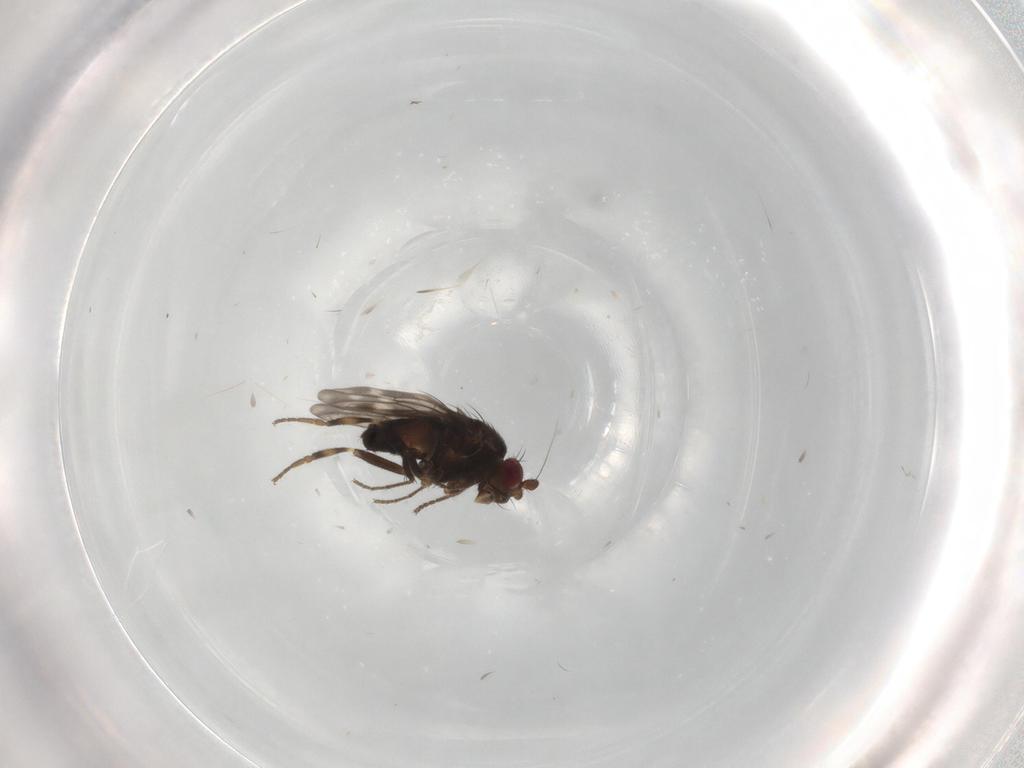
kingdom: Animalia
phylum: Arthropoda
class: Insecta
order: Diptera
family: Sphaeroceridae
